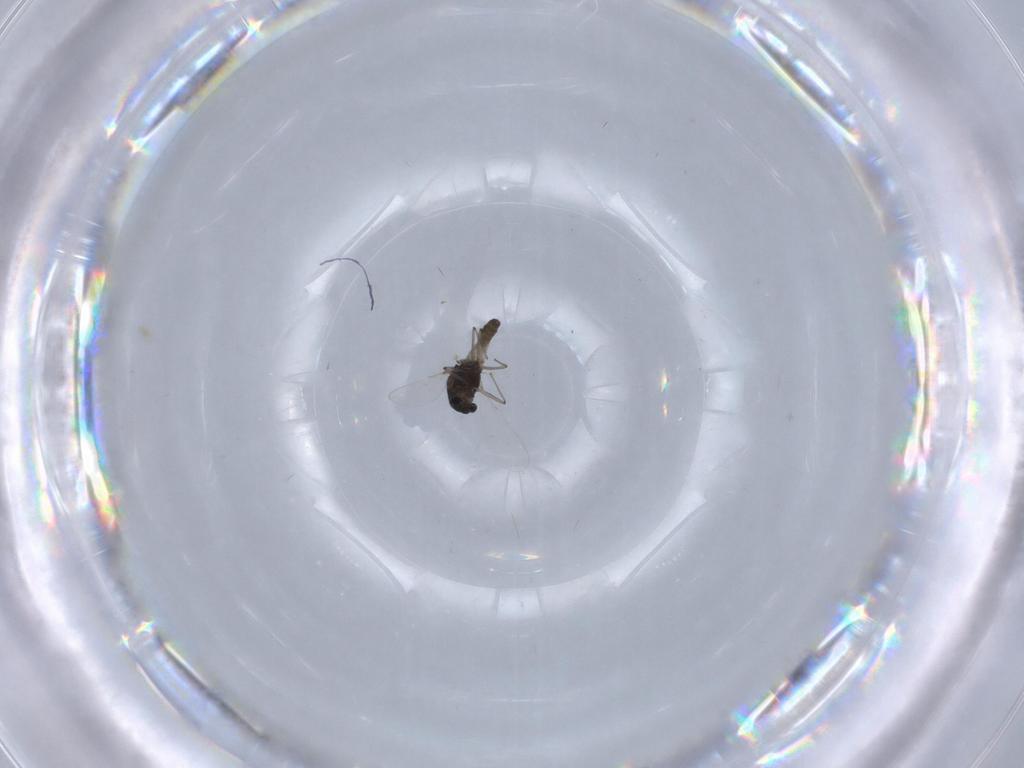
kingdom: Animalia
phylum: Arthropoda
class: Insecta
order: Diptera
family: Chironomidae
